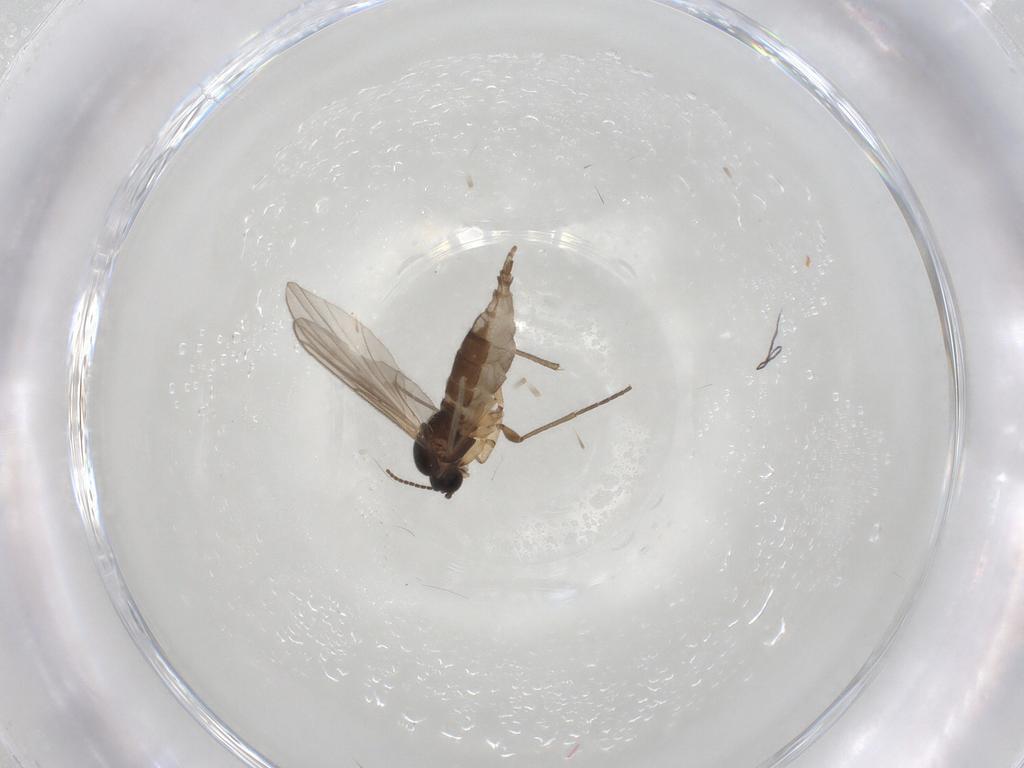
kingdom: Animalia
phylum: Arthropoda
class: Insecta
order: Diptera
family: Sciaridae
